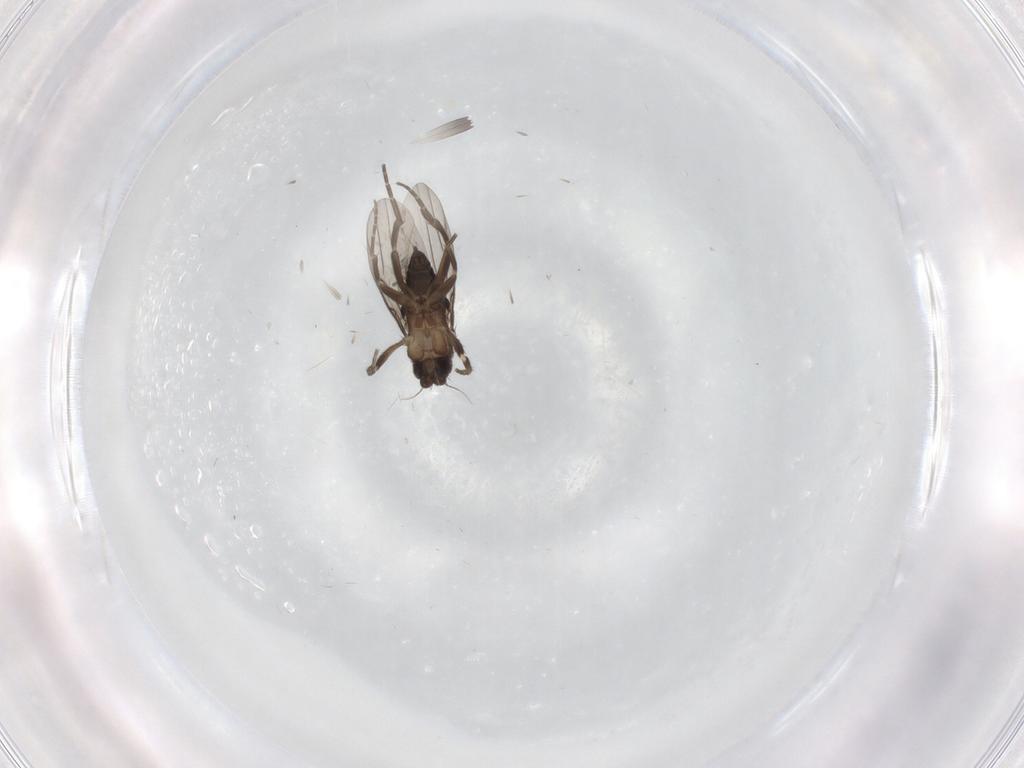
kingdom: Animalia
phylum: Arthropoda
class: Insecta
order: Diptera
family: Phoridae
